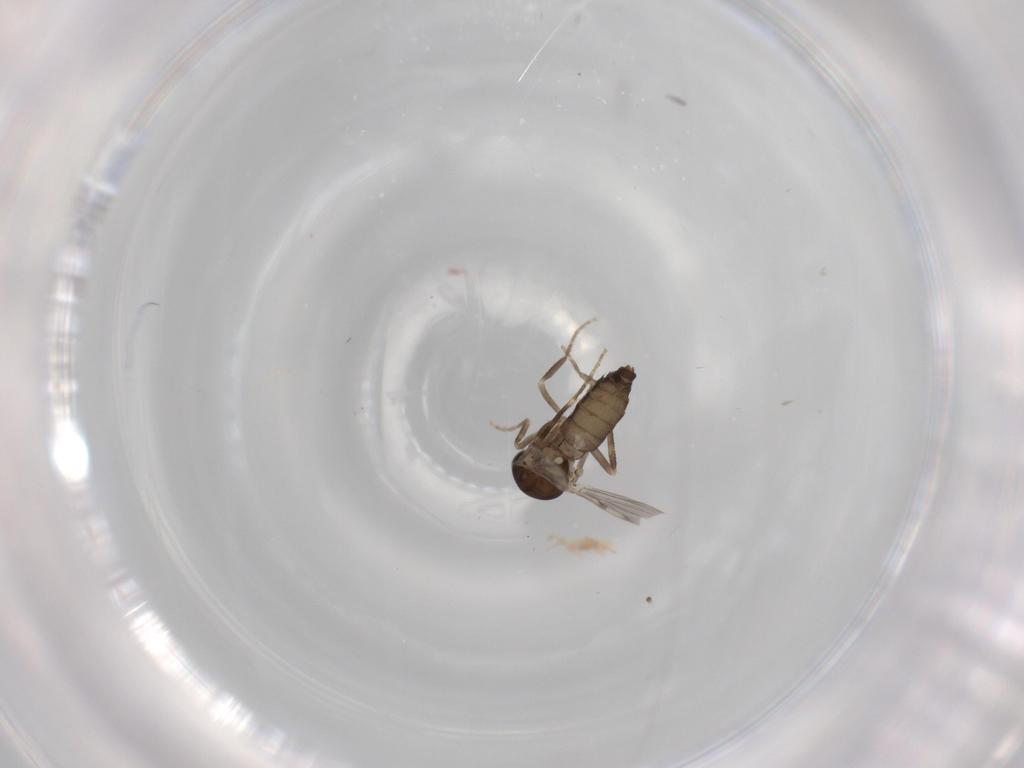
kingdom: Animalia
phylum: Arthropoda
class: Insecta
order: Diptera
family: Ceratopogonidae
